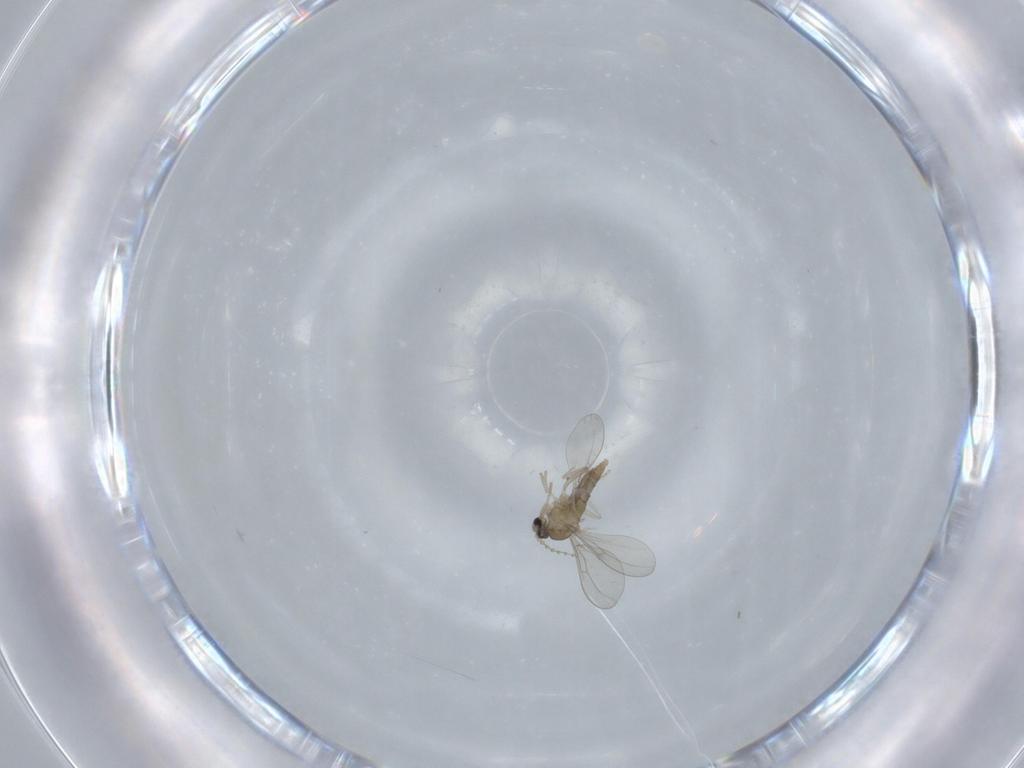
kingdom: Animalia
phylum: Arthropoda
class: Insecta
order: Diptera
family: Cecidomyiidae
